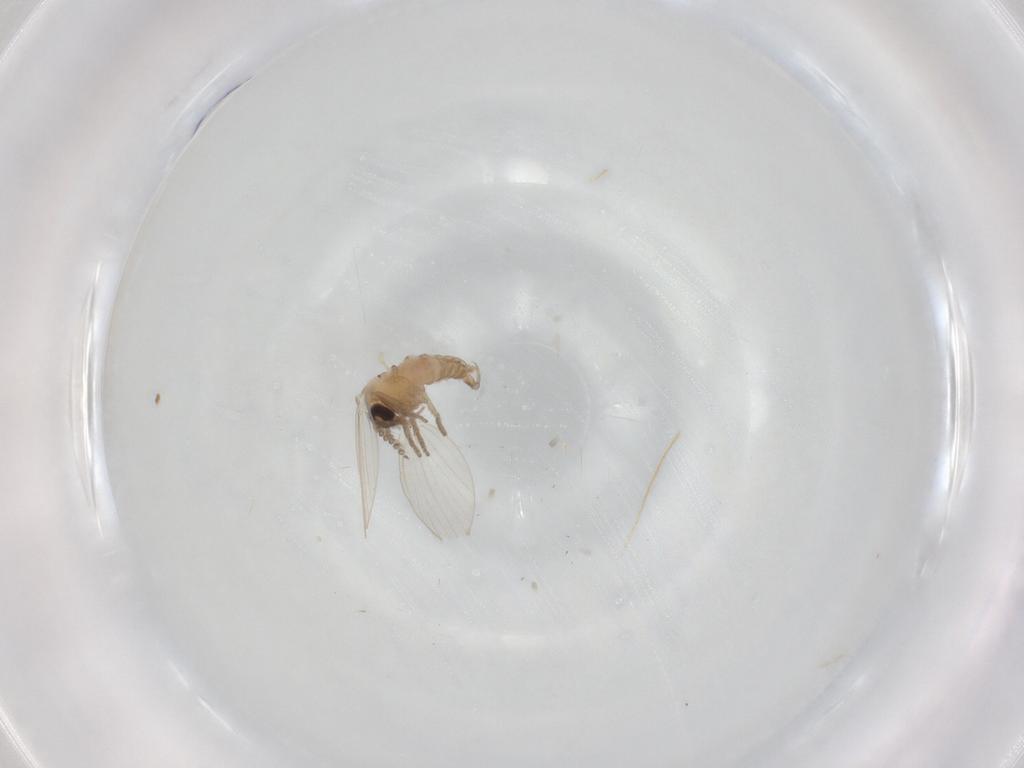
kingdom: Animalia
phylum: Arthropoda
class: Insecta
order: Diptera
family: Psychodidae
